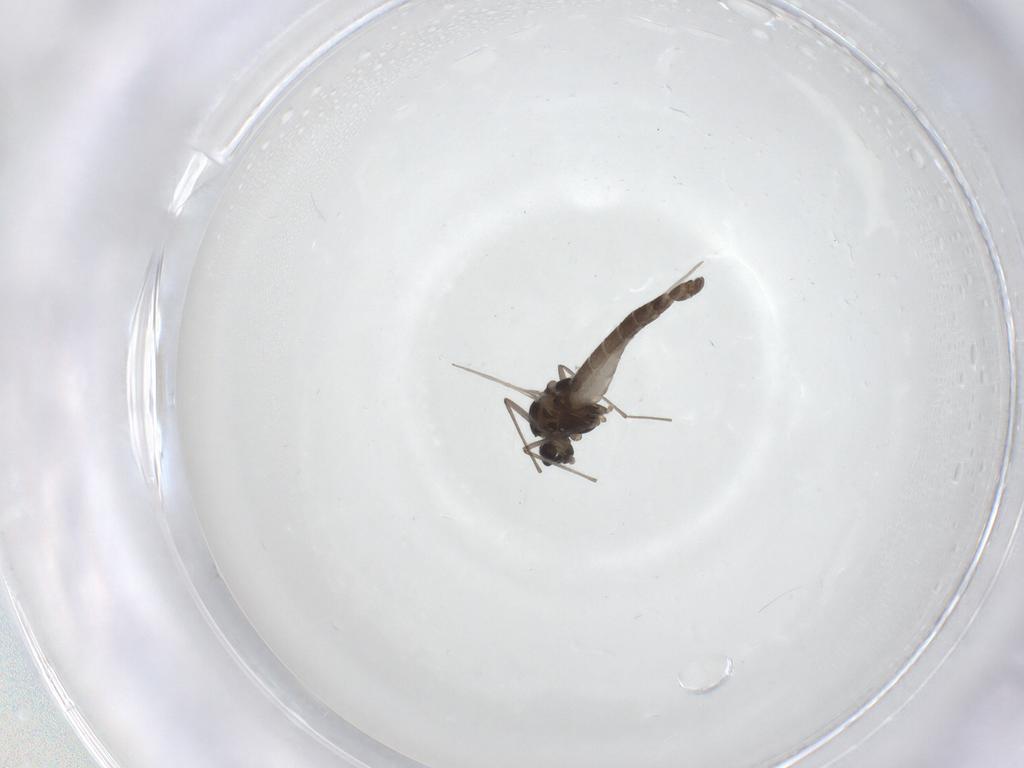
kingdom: Animalia
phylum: Arthropoda
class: Insecta
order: Diptera
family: Chironomidae
